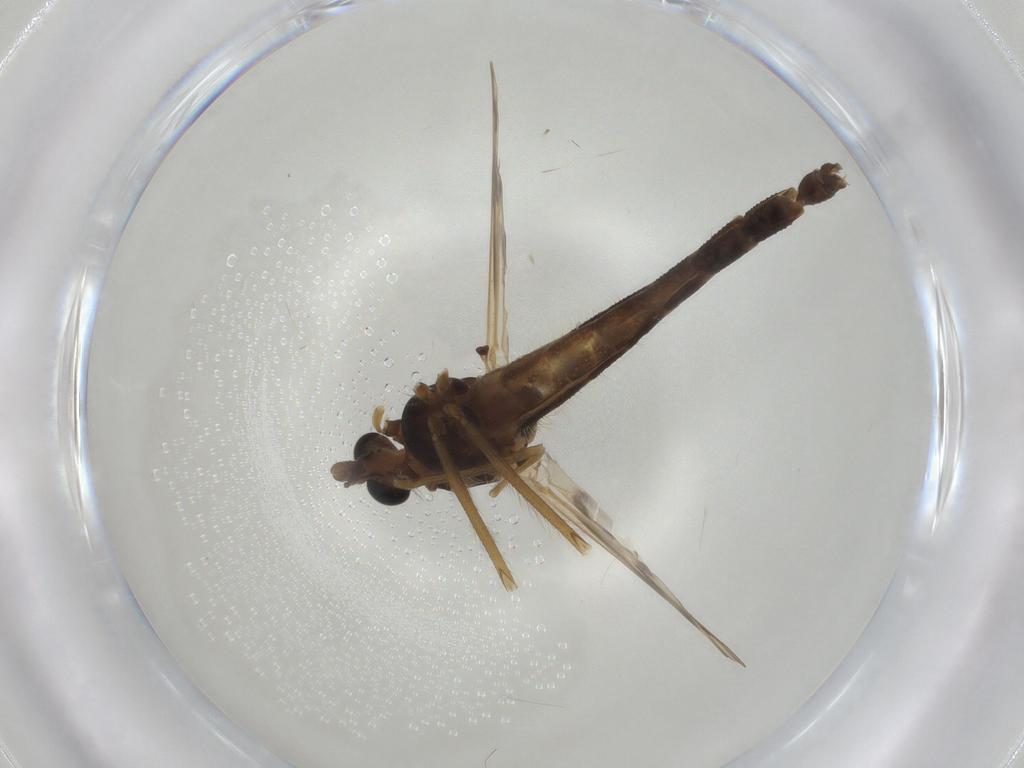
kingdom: Animalia
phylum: Arthropoda
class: Insecta
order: Diptera
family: Chironomidae
